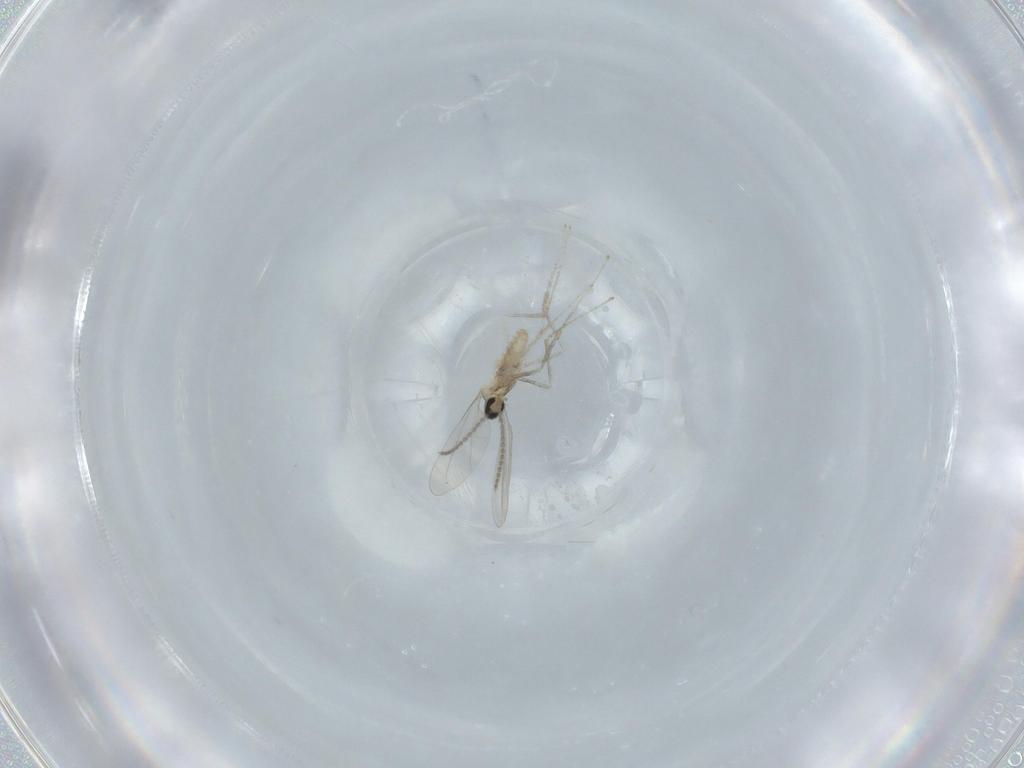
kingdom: Animalia
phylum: Arthropoda
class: Insecta
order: Diptera
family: Cecidomyiidae
